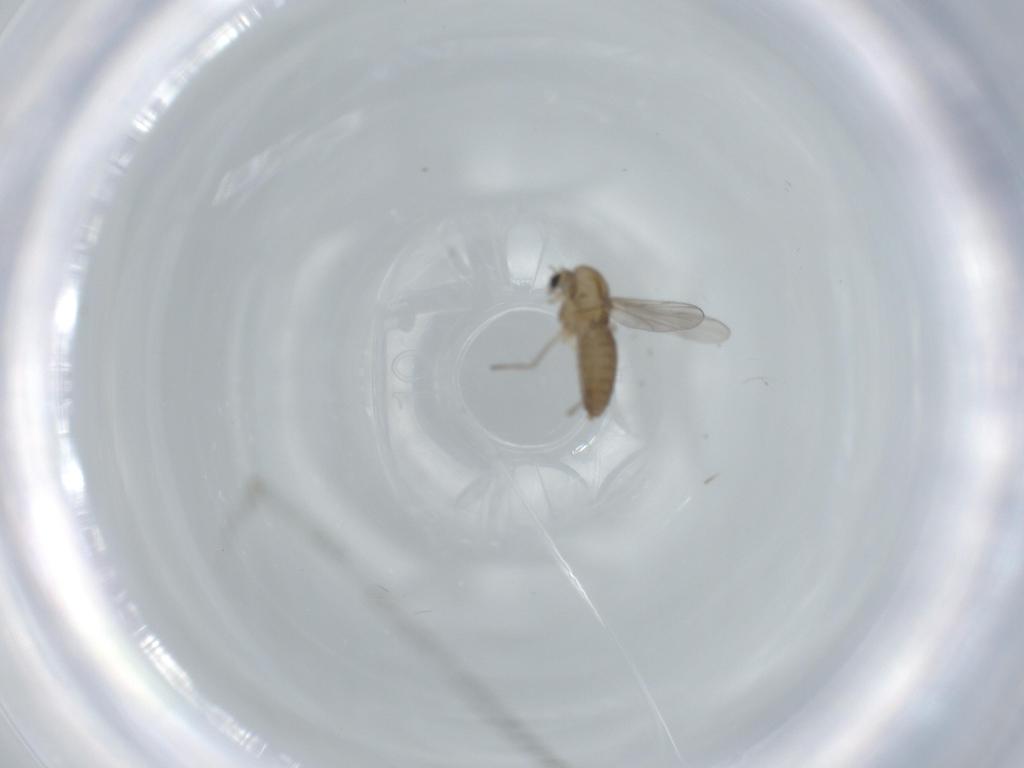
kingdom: Animalia
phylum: Arthropoda
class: Insecta
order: Diptera
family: Chironomidae
